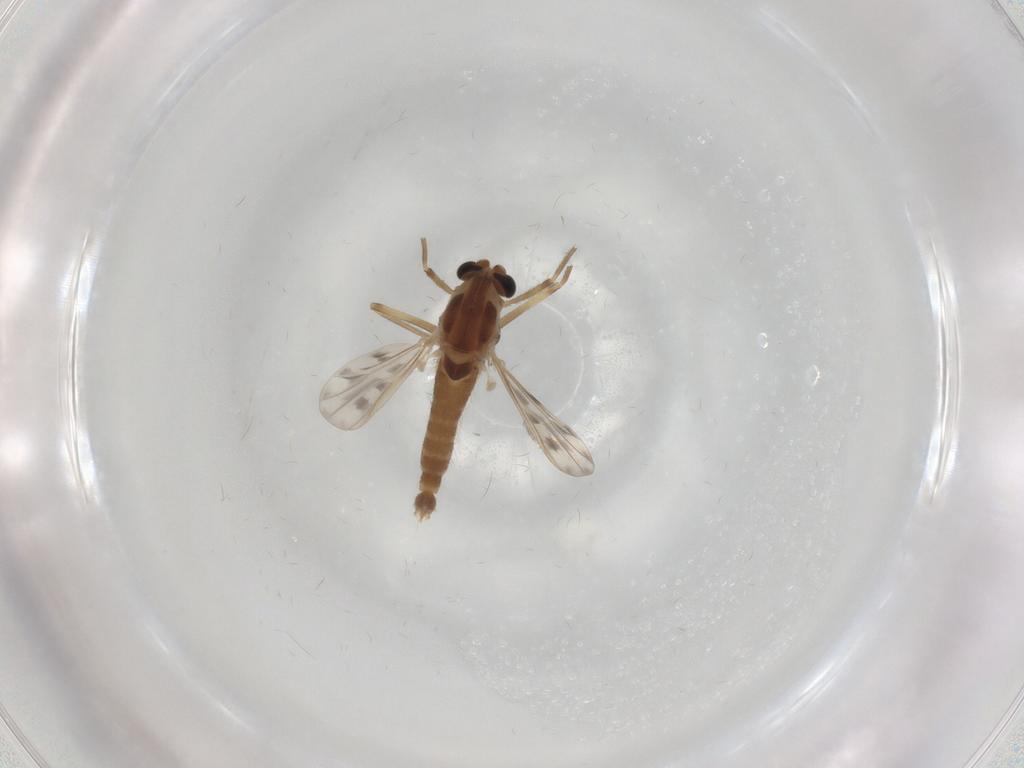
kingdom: Animalia
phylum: Arthropoda
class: Insecta
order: Diptera
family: Chironomidae
